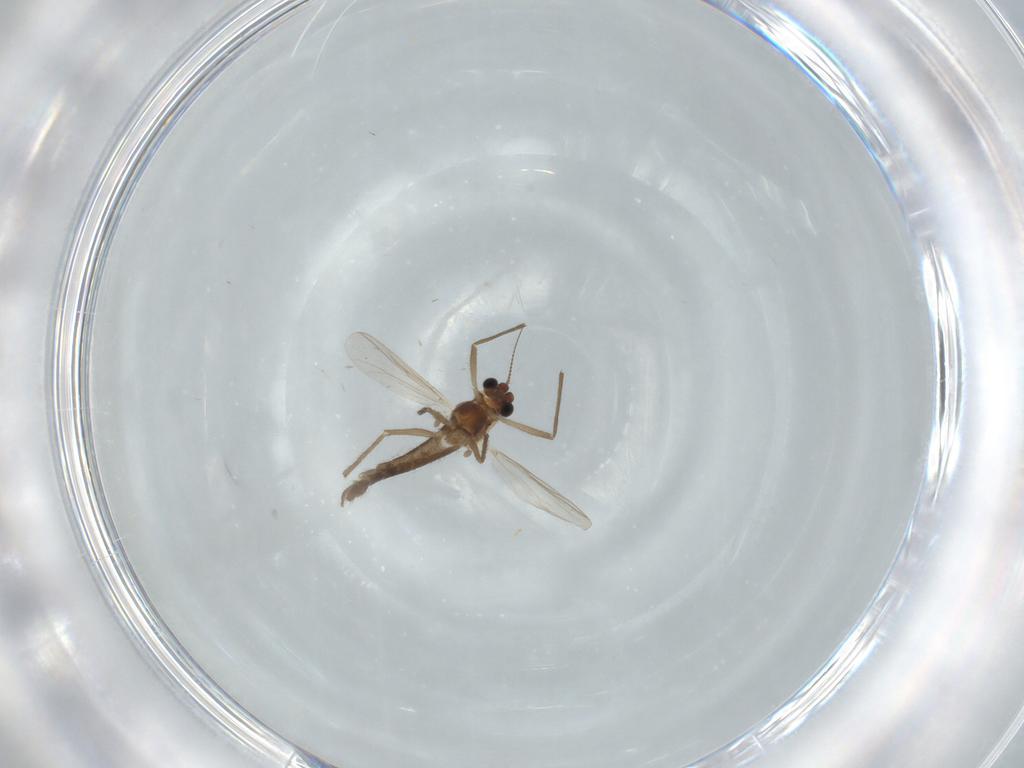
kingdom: Animalia
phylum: Arthropoda
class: Insecta
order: Diptera
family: Chironomidae
